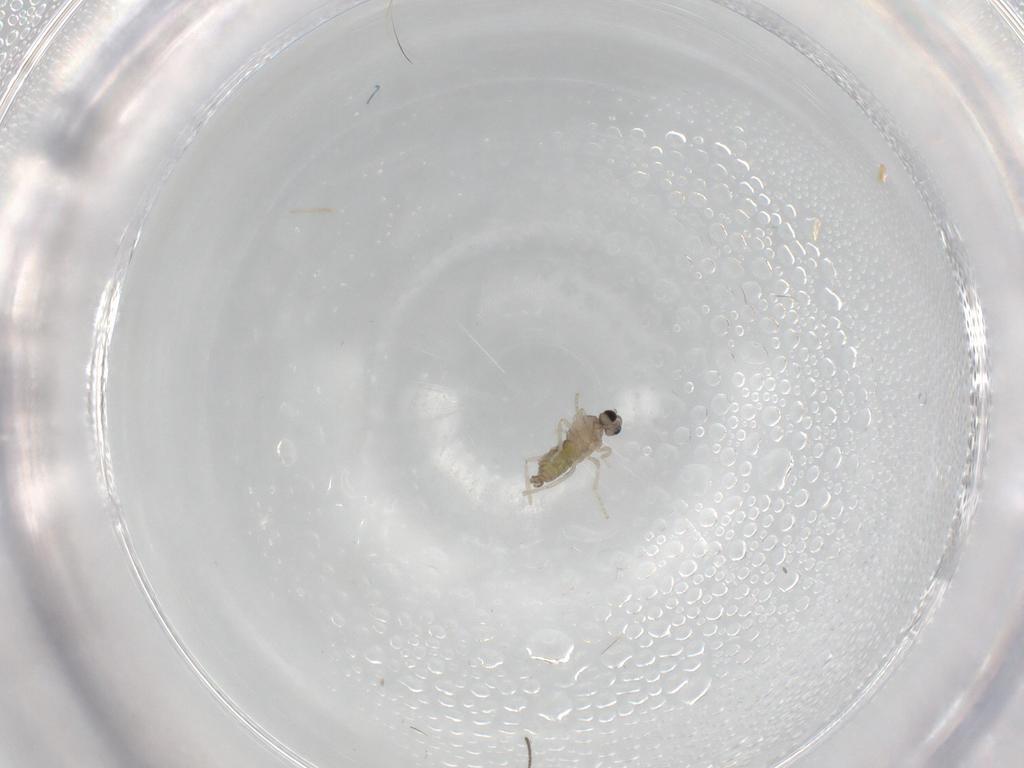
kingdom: Animalia
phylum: Arthropoda
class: Insecta
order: Diptera
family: Cecidomyiidae
